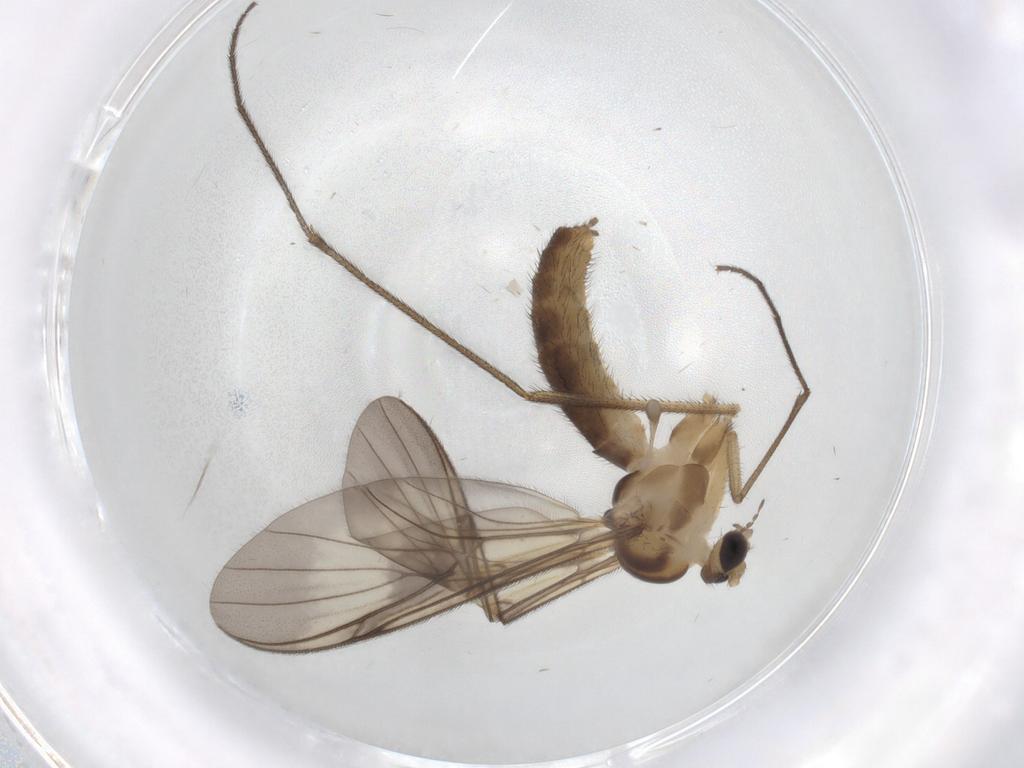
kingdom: Animalia
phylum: Arthropoda
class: Insecta
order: Diptera
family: Keroplatidae
